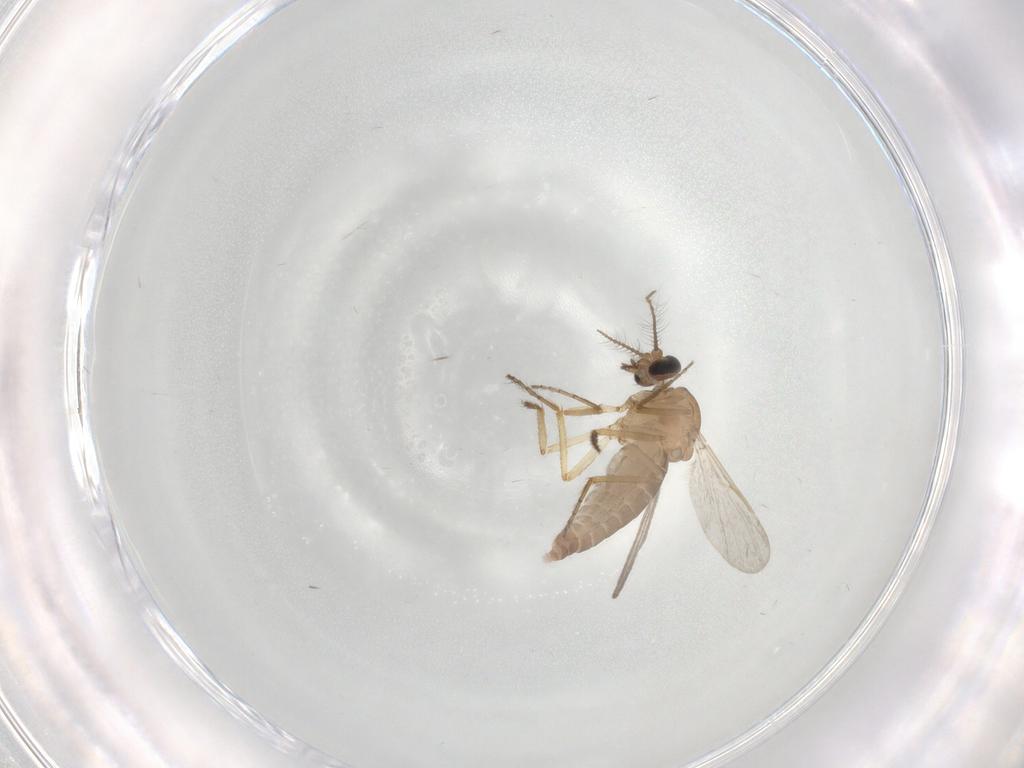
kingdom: Animalia
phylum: Arthropoda
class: Insecta
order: Diptera
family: Ceratopogonidae
